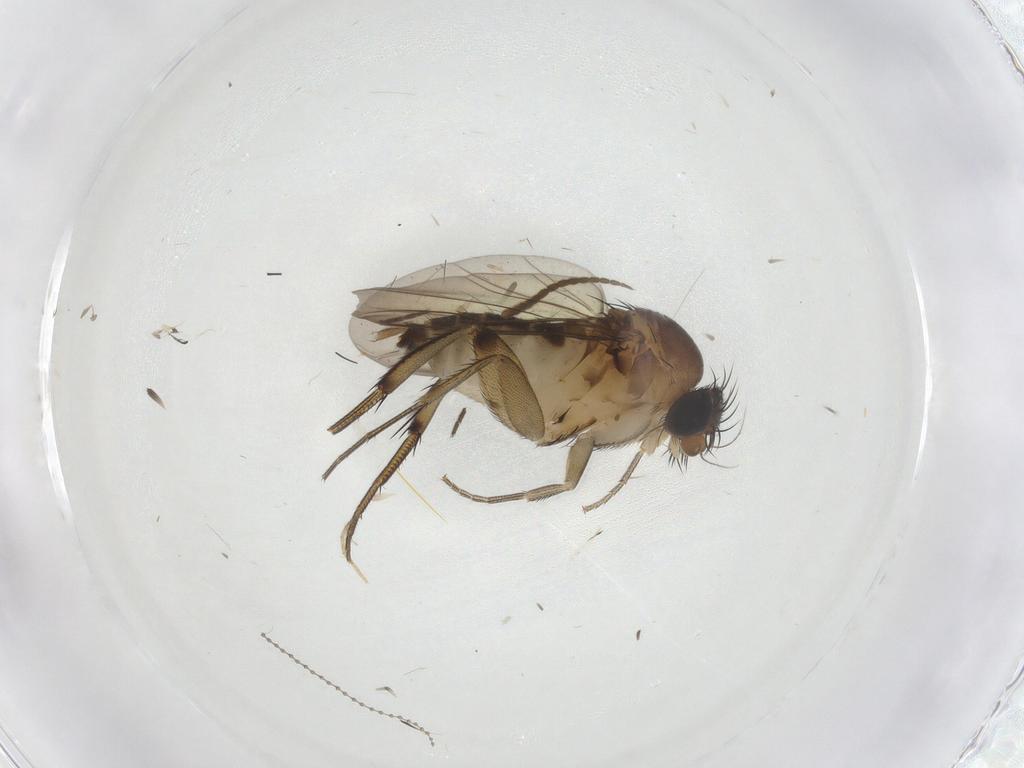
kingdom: Animalia
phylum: Arthropoda
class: Insecta
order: Diptera
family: Phoridae
